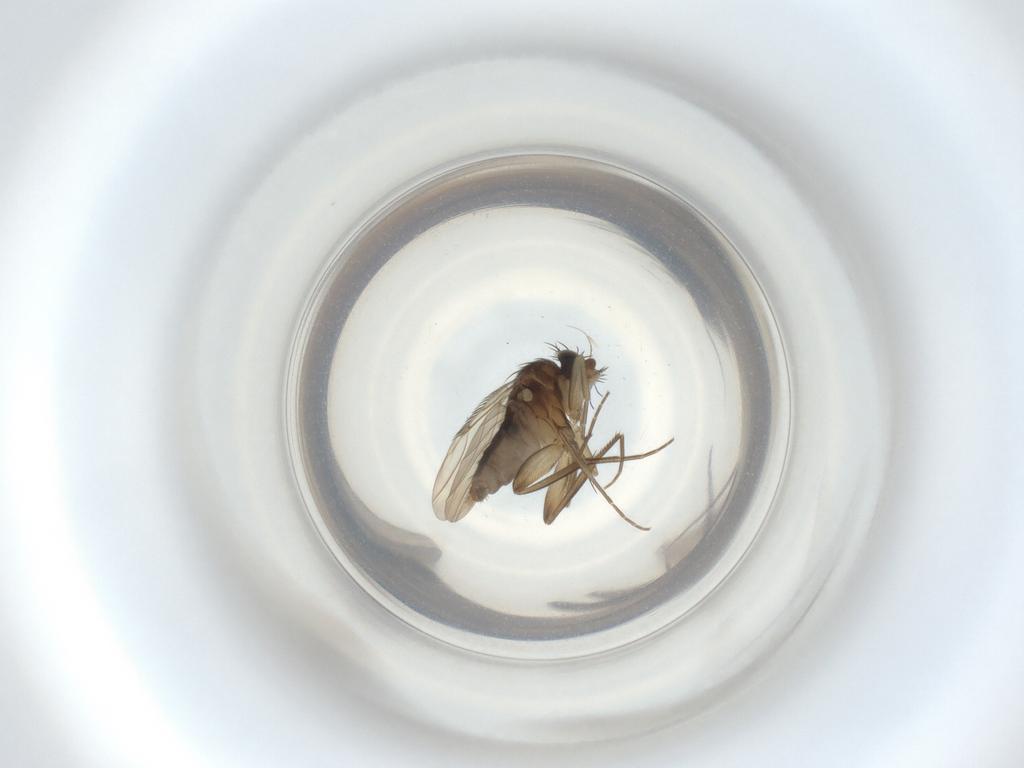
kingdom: Animalia
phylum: Arthropoda
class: Insecta
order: Diptera
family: Phoridae
